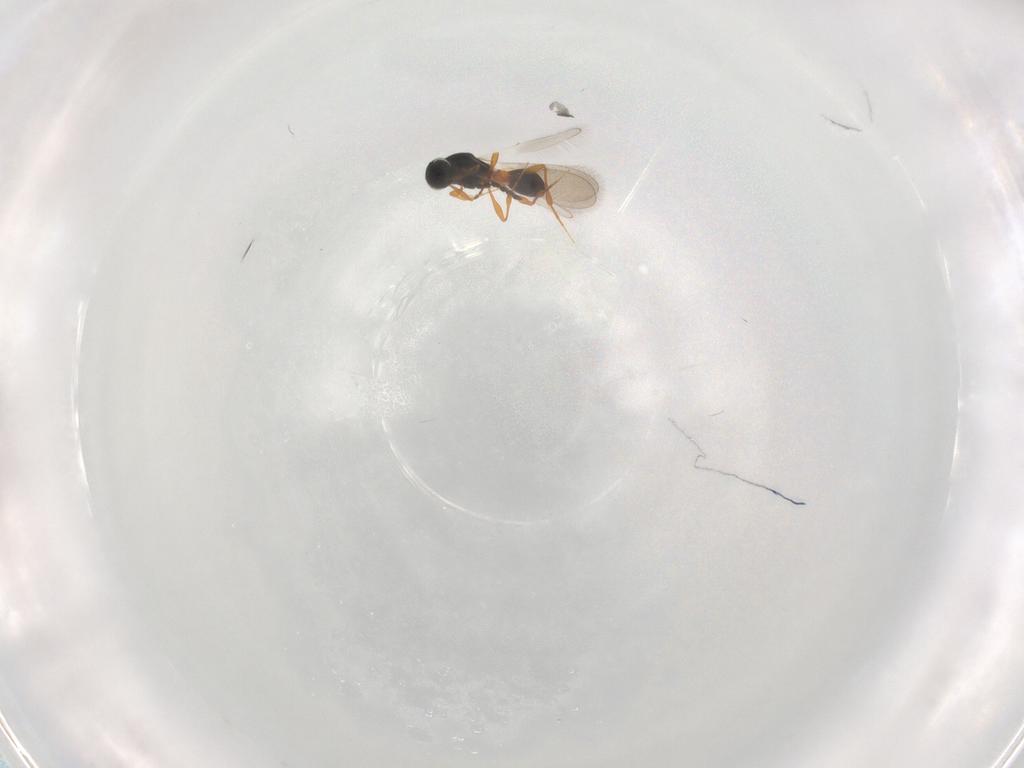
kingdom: Animalia
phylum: Arthropoda
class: Insecta
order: Hymenoptera
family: Platygastridae
